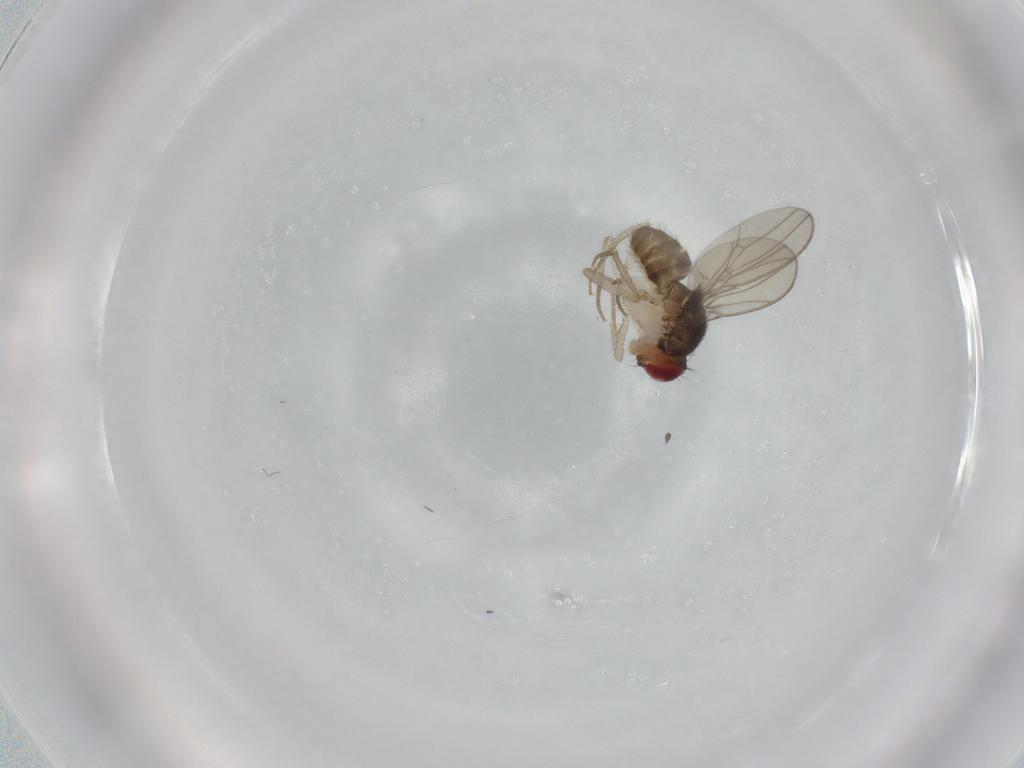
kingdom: Animalia
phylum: Arthropoda
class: Insecta
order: Diptera
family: Drosophilidae
